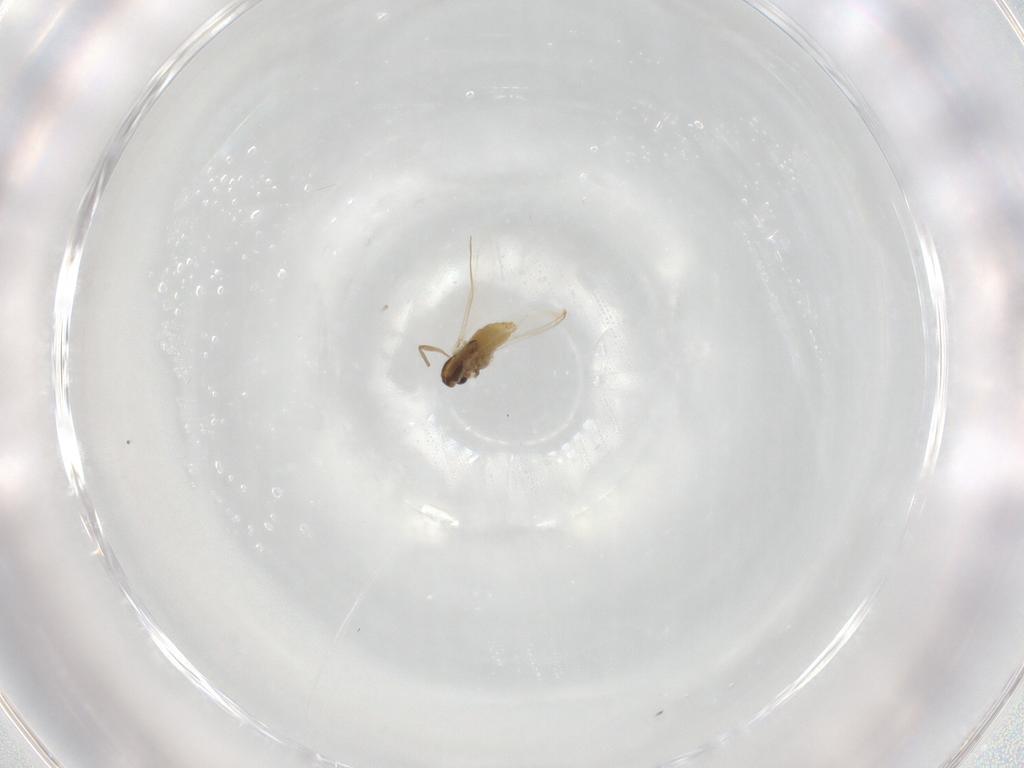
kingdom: Animalia
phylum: Arthropoda
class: Insecta
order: Diptera
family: Chironomidae
